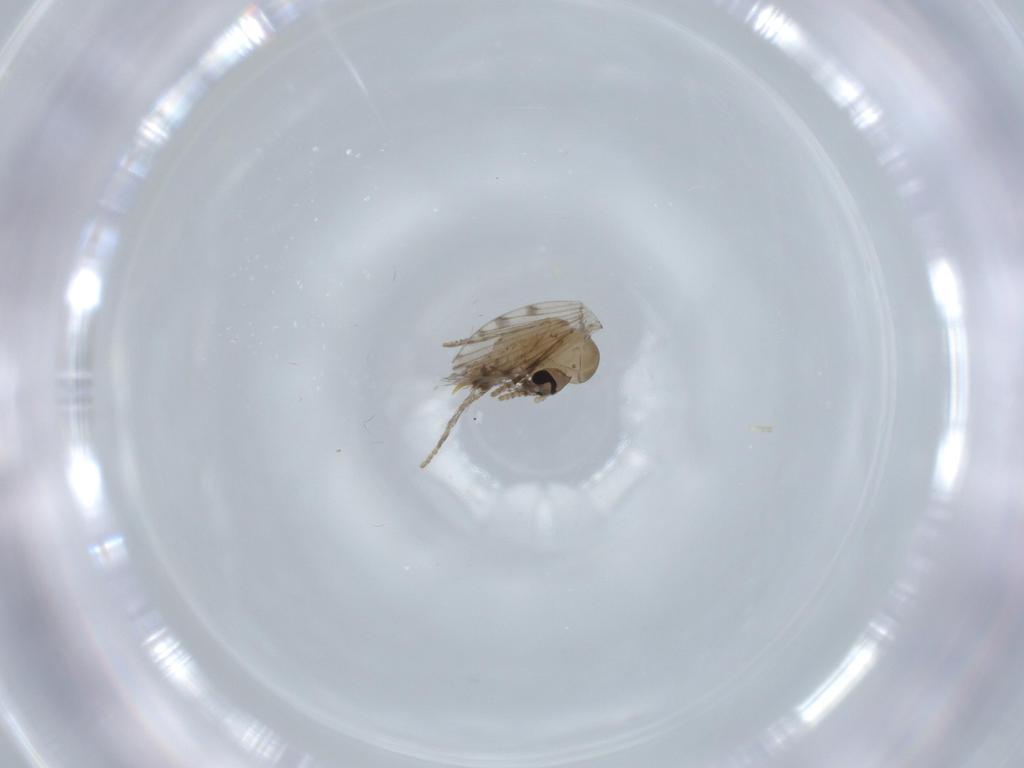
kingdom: Animalia
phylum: Arthropoda
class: Insecta
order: Diptera
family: Psychodidae
